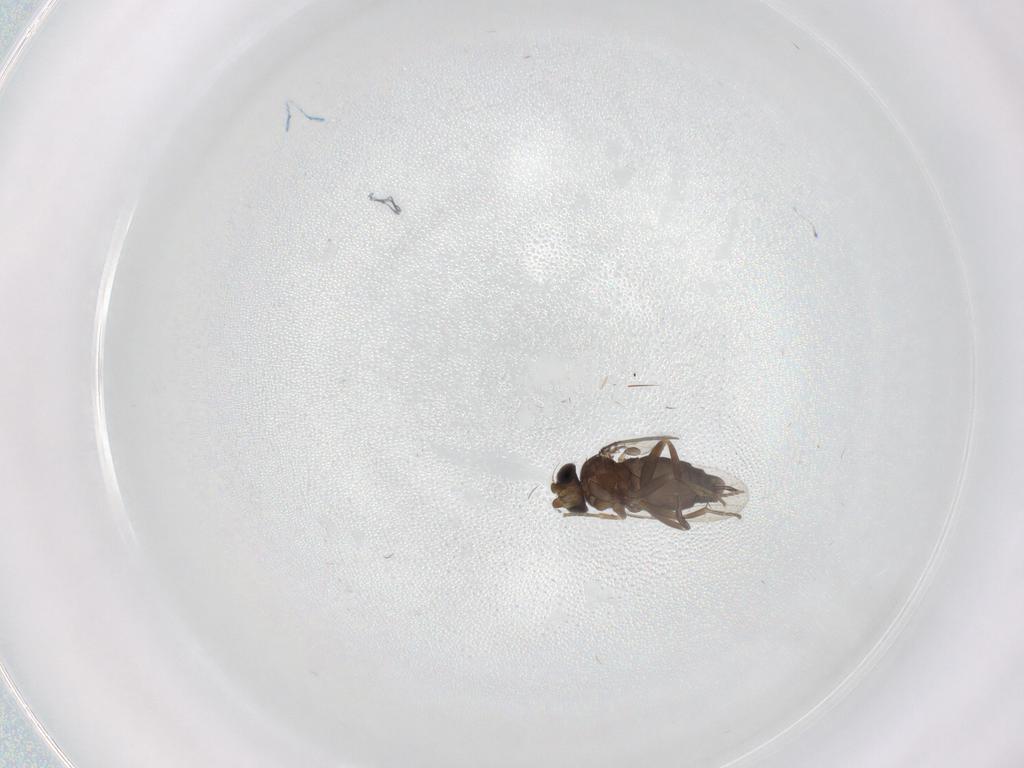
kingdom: Animalia
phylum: Arthropoda
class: Insecta
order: Diptera
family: Phoridae
